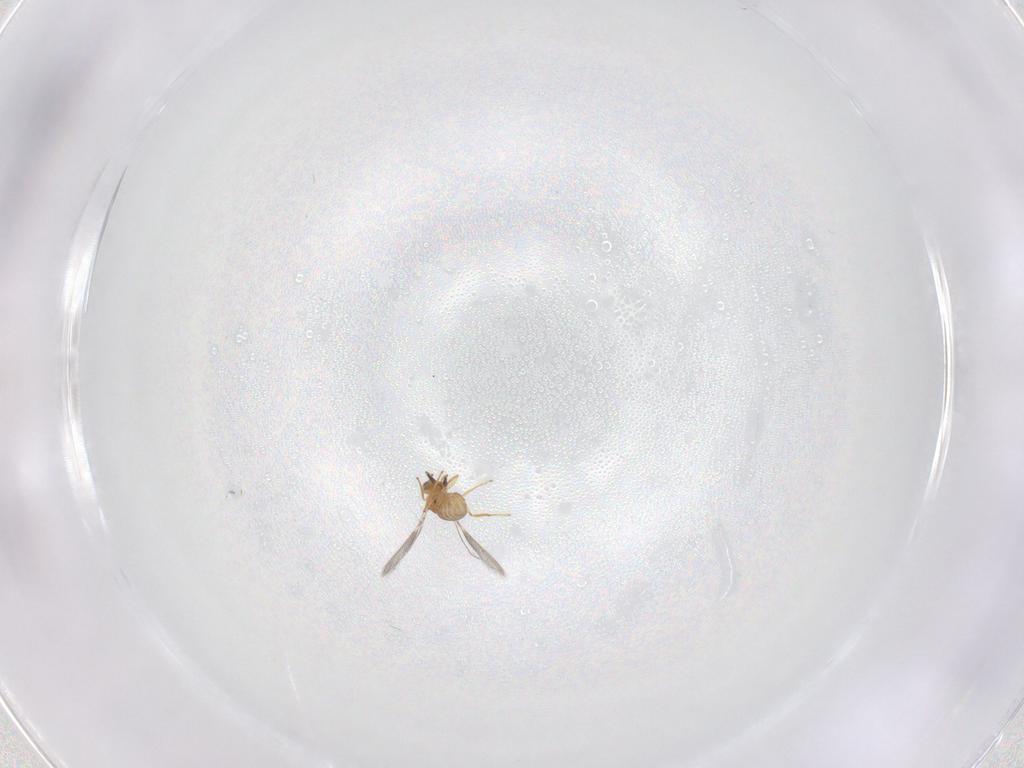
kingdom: Animalia
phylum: Arthropoda
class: Insecta
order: Hymenoptera
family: Mymaridae
